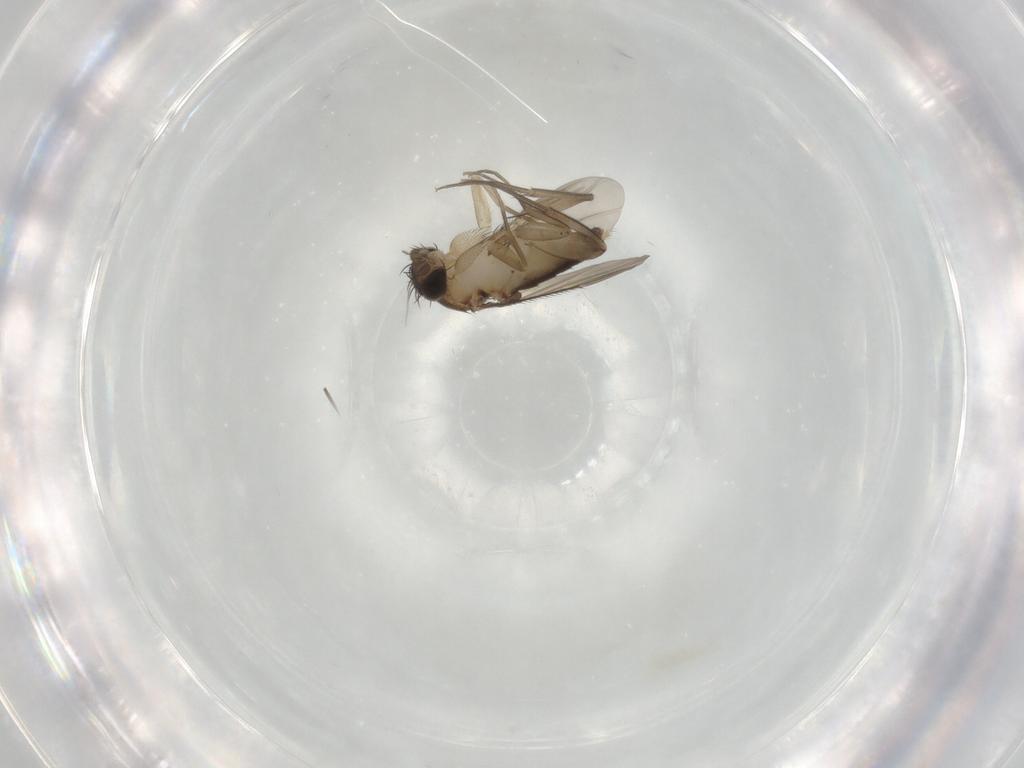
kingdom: Animalia
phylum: Arthropoda
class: Insecta
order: Diptera
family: Phoridae
